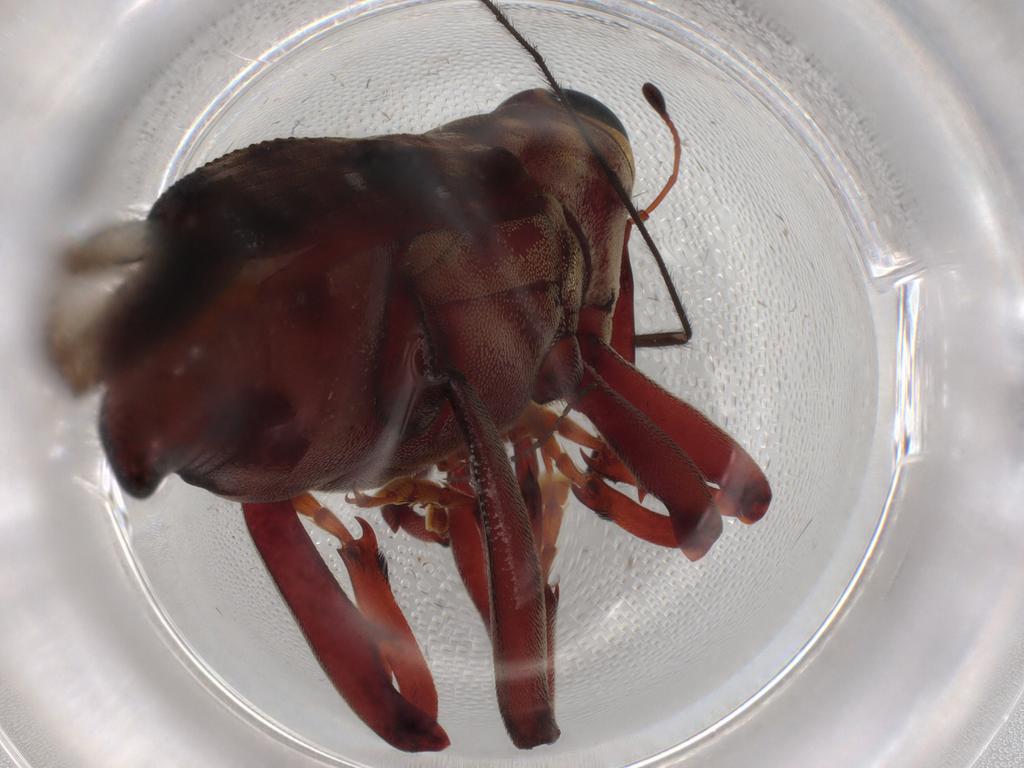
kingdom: Animalia
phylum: Arthropoda
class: Insecta
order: Coleoptera
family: Curculionidae
